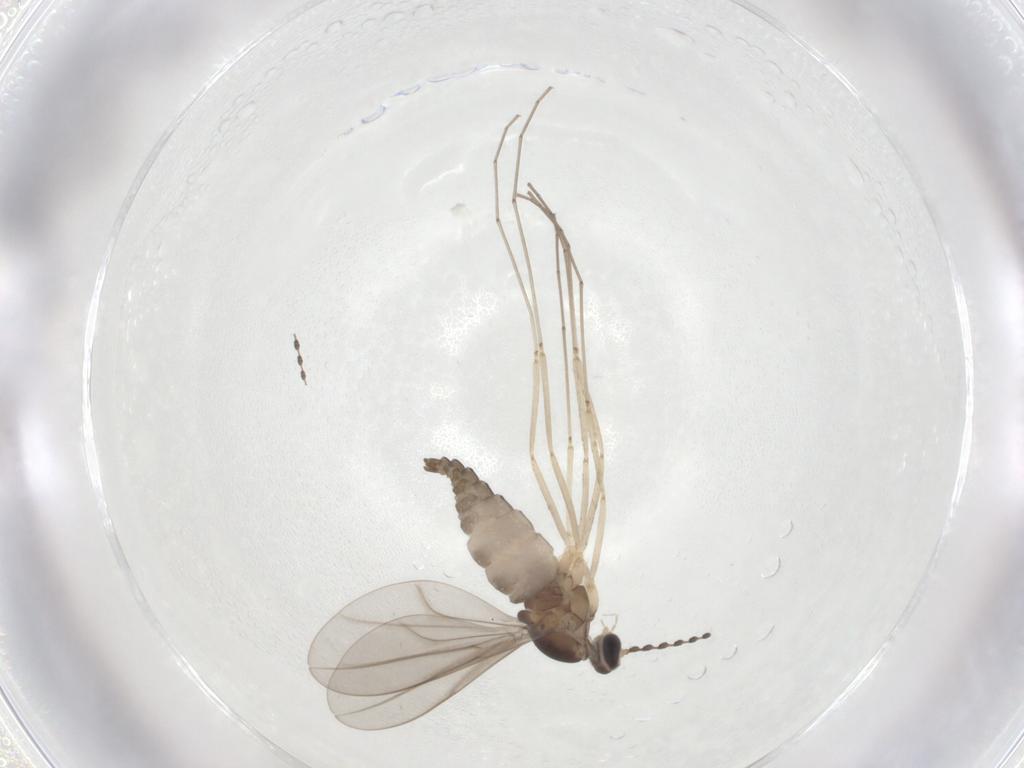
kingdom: Animalia
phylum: Arthropoda
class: Insecta
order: Diptera
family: Cecidomyiidae
